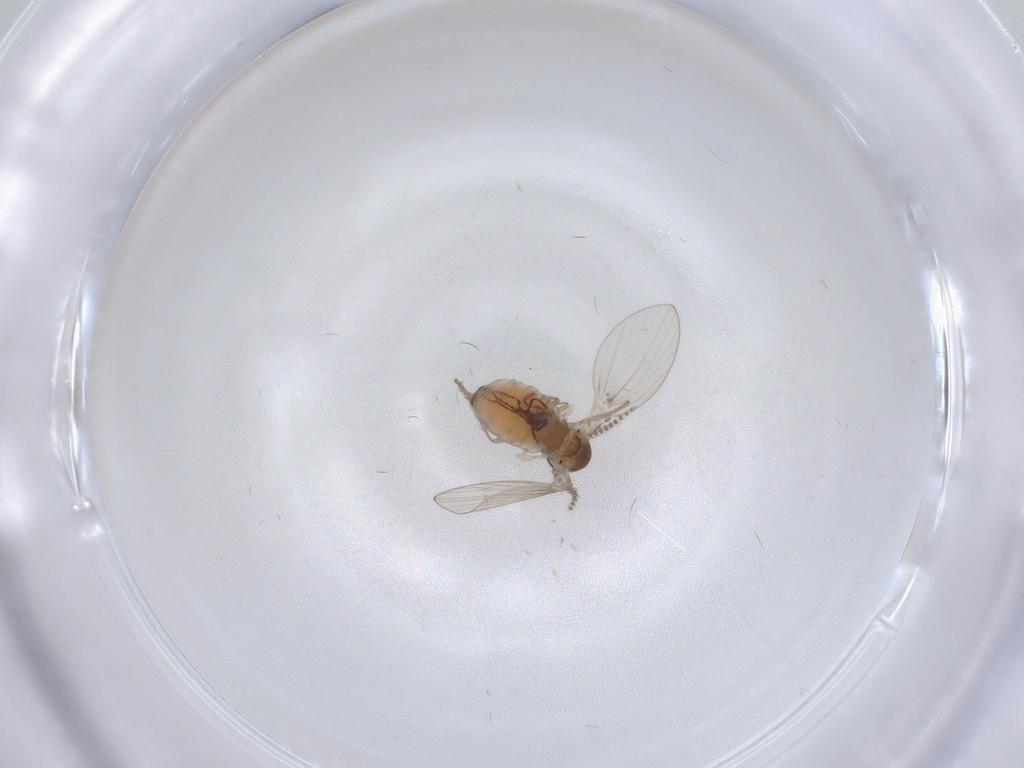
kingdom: Animalia
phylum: Arthropoda
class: Insecta
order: Diptera
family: Psychodidae
